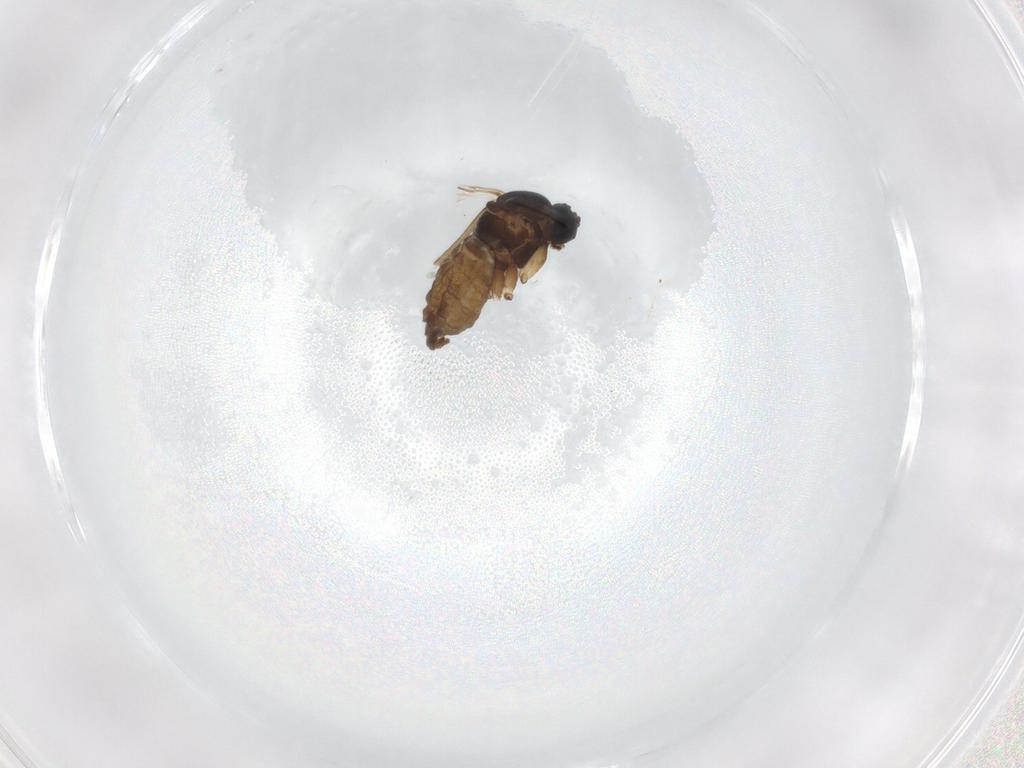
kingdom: Animalia
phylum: Arthropoda
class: Insecta
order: Diptera
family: Sciaridae
